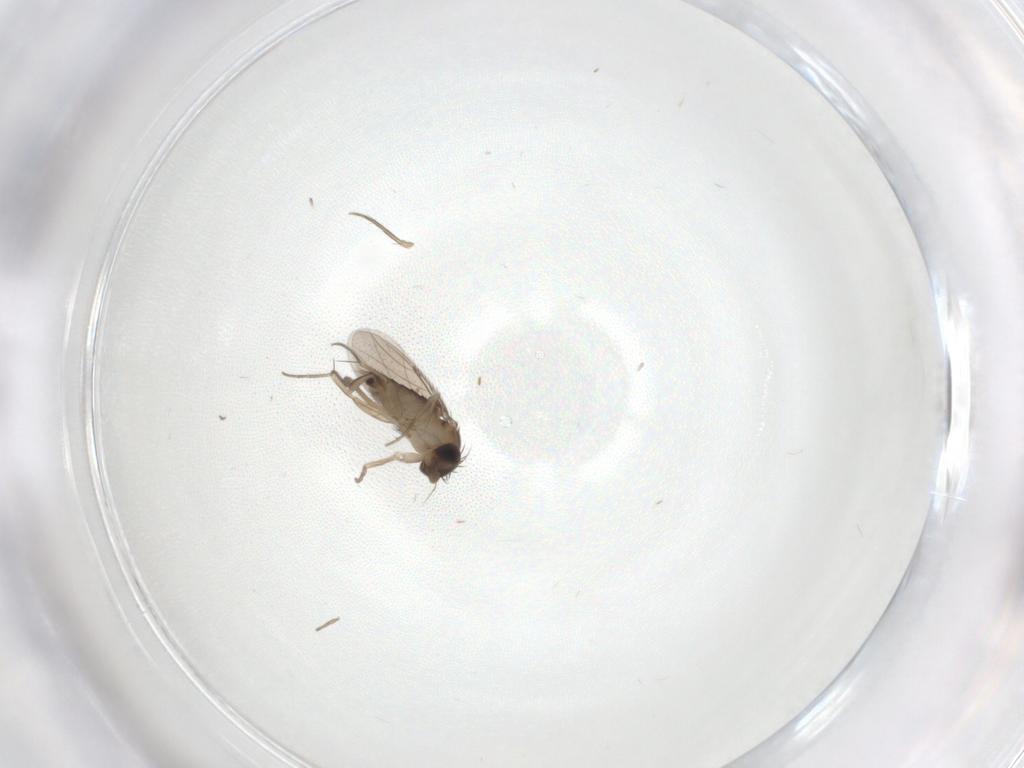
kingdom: Animalia
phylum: Arthropoda
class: Insecta
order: Diptera
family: Phoridae
